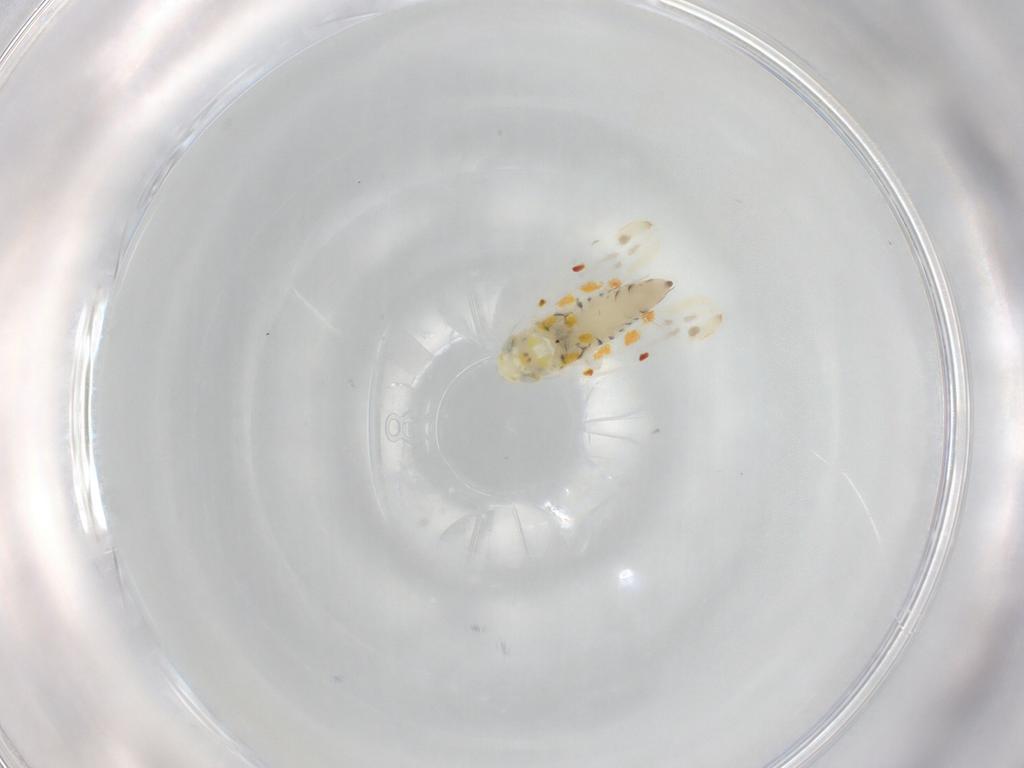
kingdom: Animalia
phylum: Arthropoda
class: Insecta
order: Hemiptera
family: Cicadellidae
